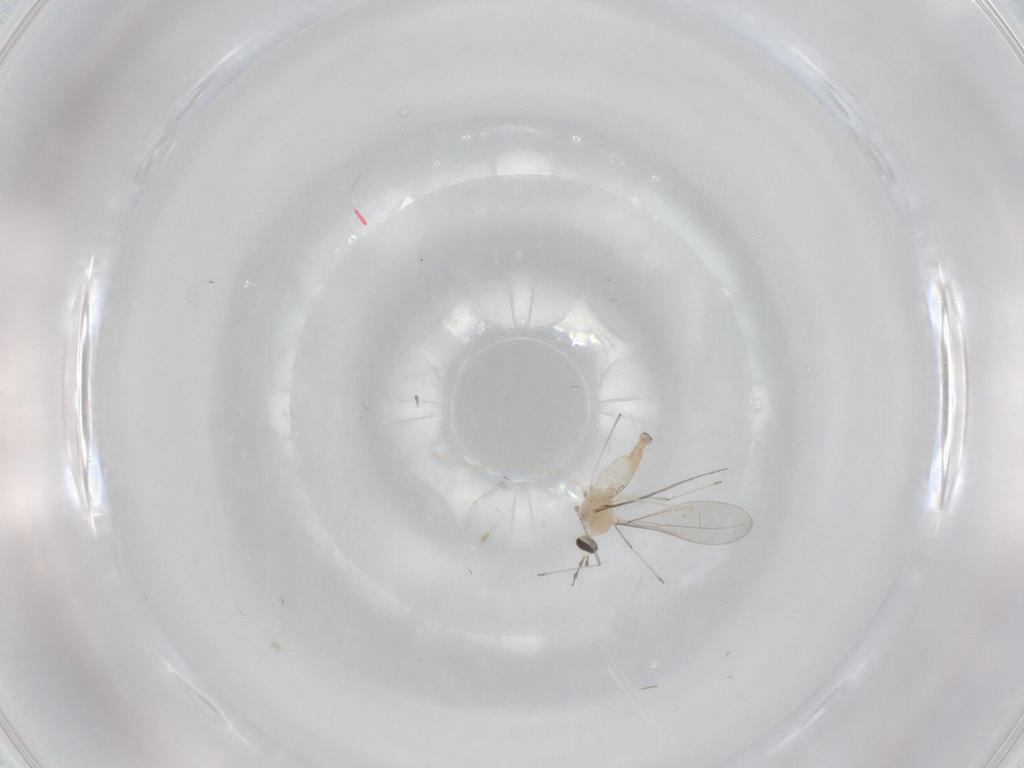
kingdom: Animalia
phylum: Arthropoda
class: Insecta
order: Diptera
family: Cecidomyiidae
